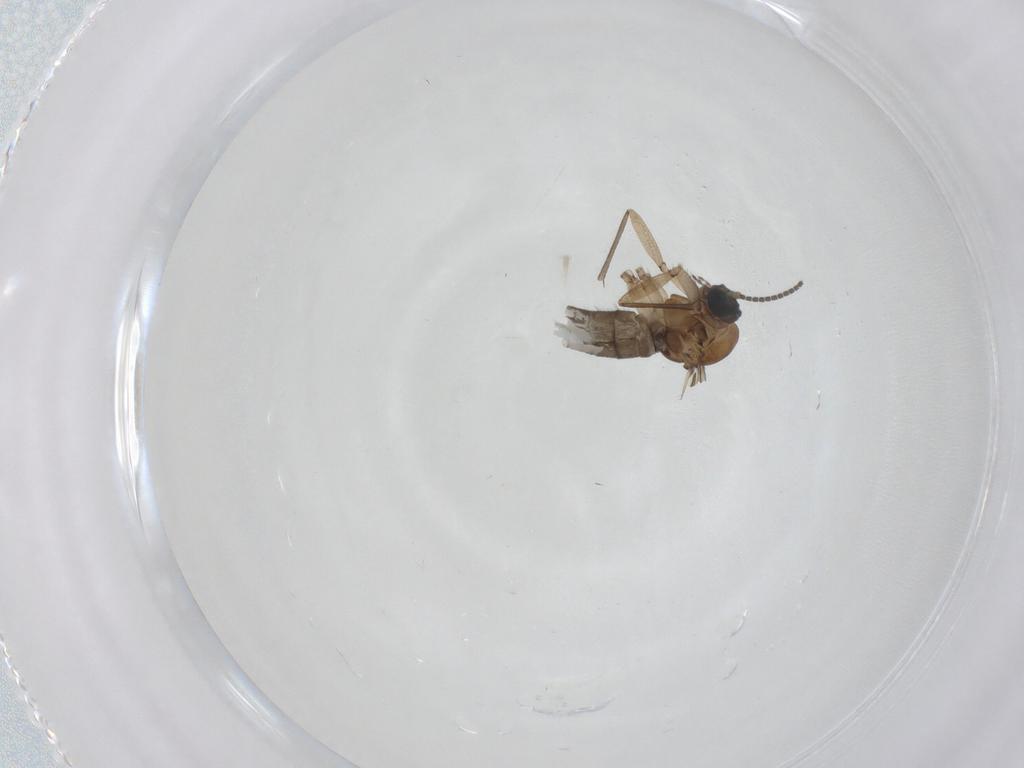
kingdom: Animalia
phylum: Arthropoda
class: Insecta
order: Diptera
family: Sciaridae
